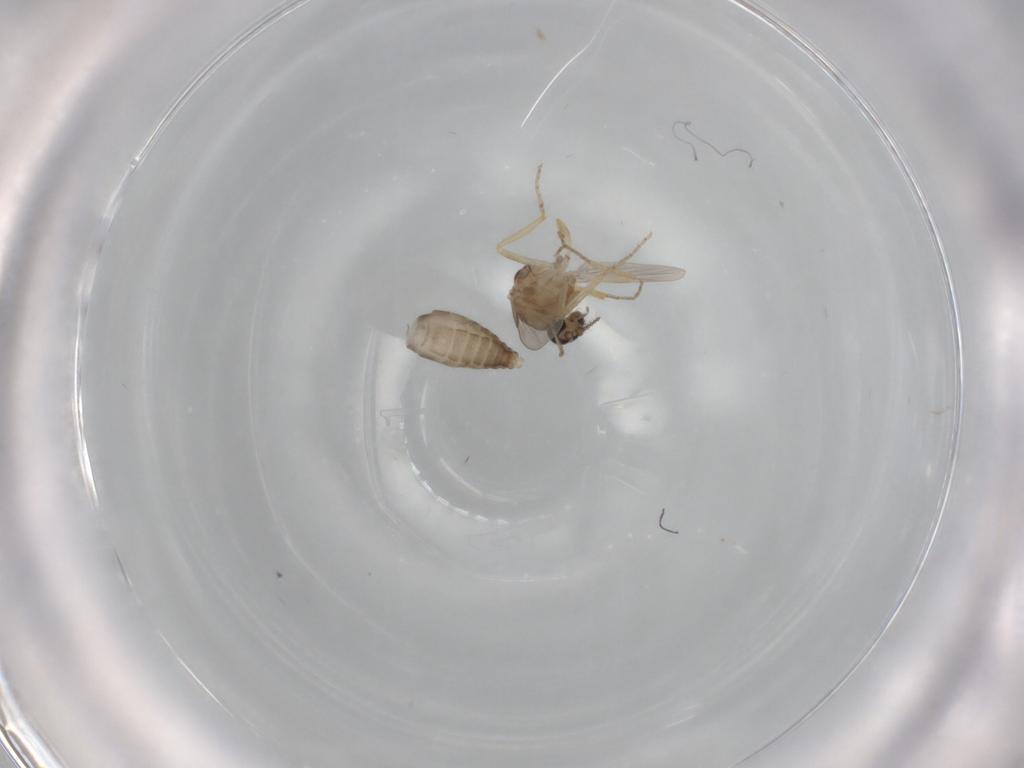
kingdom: Animalia
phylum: Arthropoda
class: Insecta
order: Diptera
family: Ceratopogonidae
